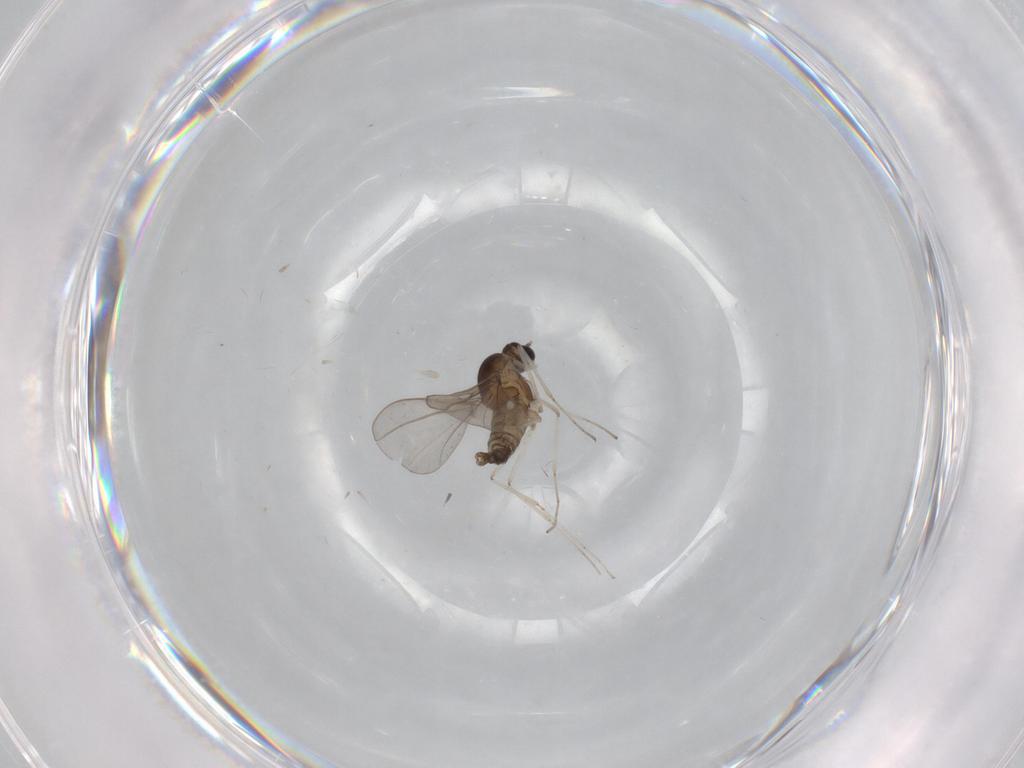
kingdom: Animalia
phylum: Arthropoda
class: Insecta
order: Diptera
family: Cecidomyiidae
